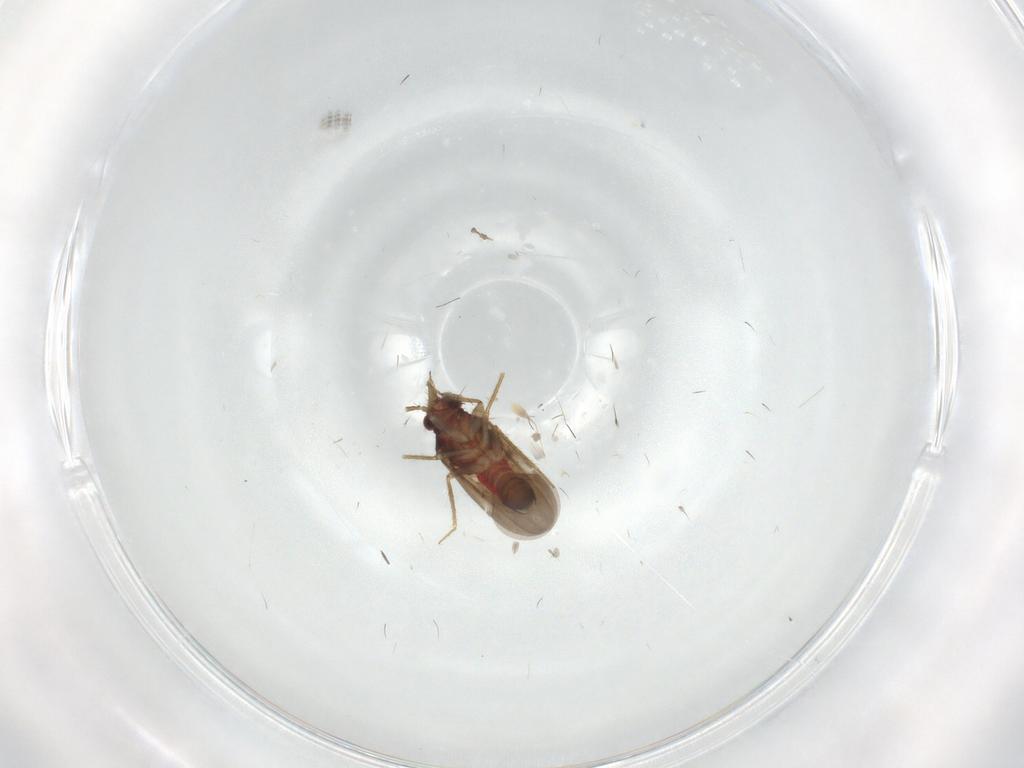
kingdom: Animalia
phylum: Arthropoda
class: Insecta
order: Hemiptera
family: Ceratocombidae
